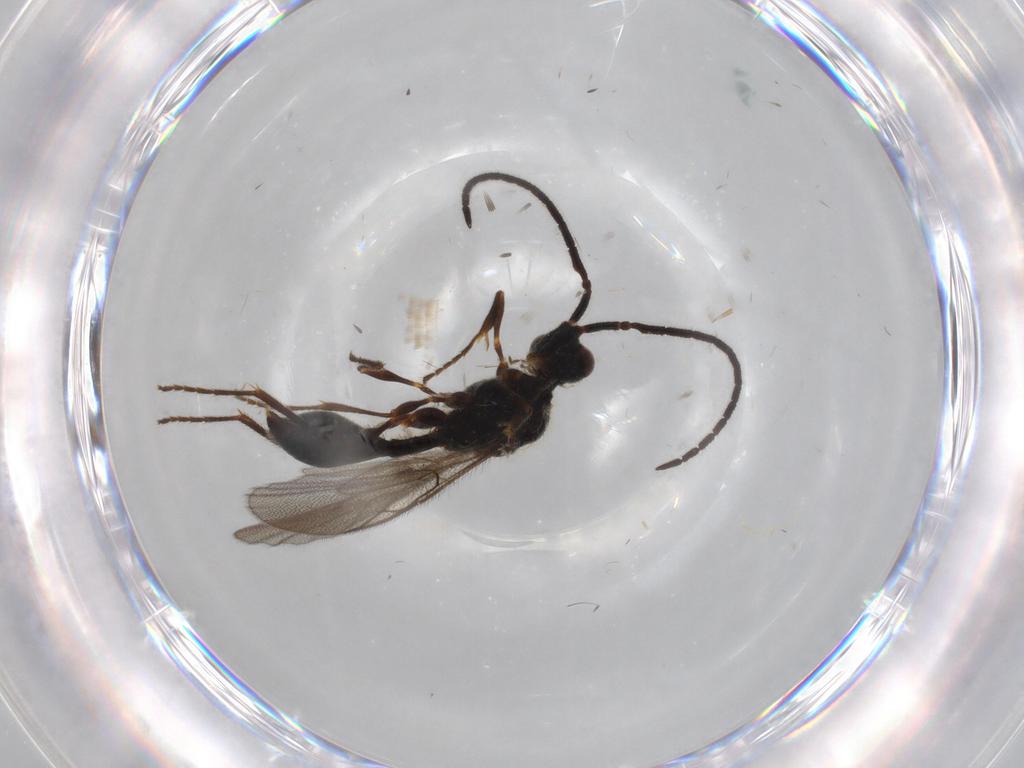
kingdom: Animalia
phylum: Arthropoda
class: Insecta
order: Hymenoptera
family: Diapriidae
